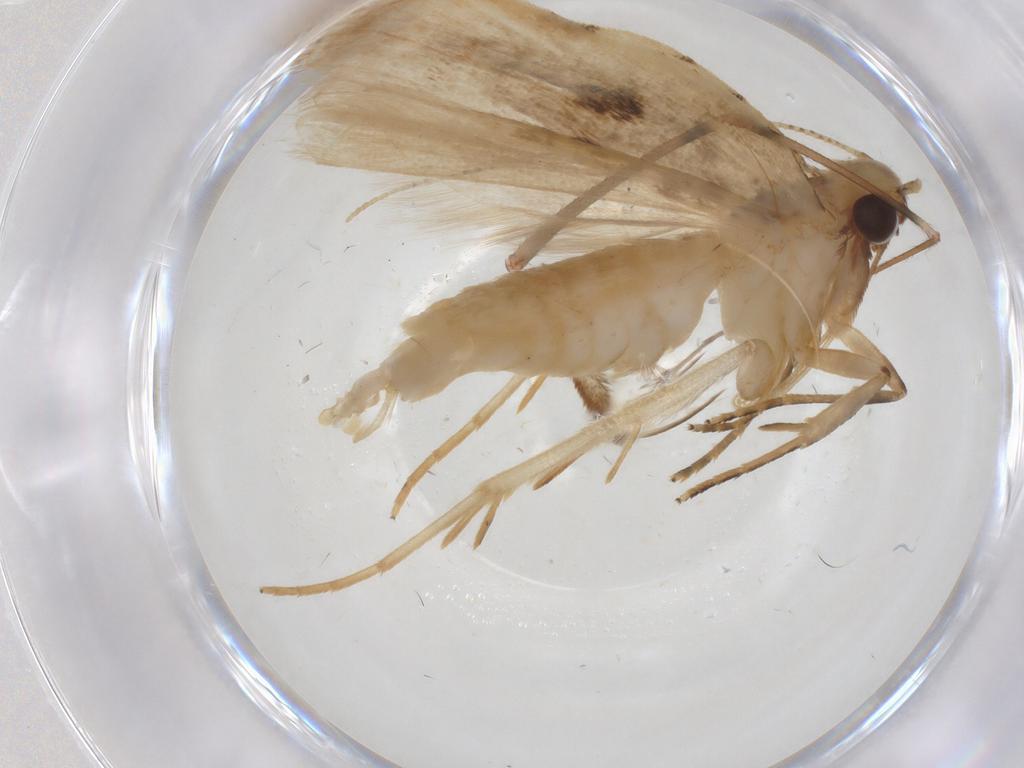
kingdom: Animalia
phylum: Arthropoda
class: Insecta
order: Lepidoptera
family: Gelechiidae
